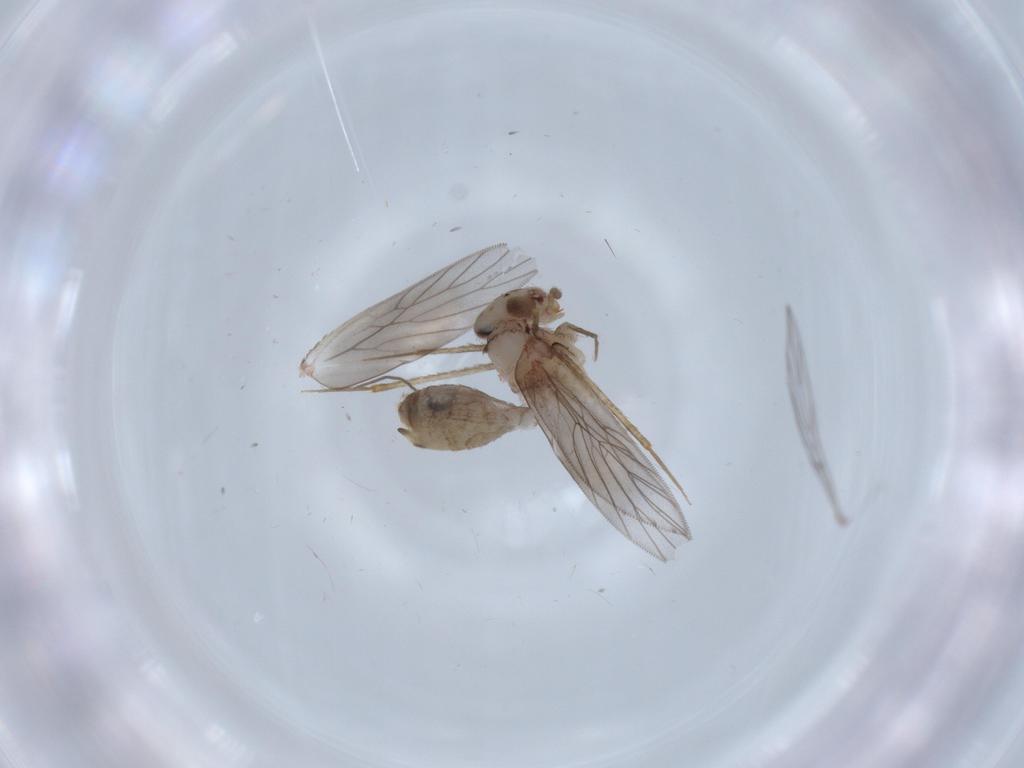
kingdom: Animalia
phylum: Arthropoda
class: Insecta
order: Psocodea
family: Lepidopsocidae
